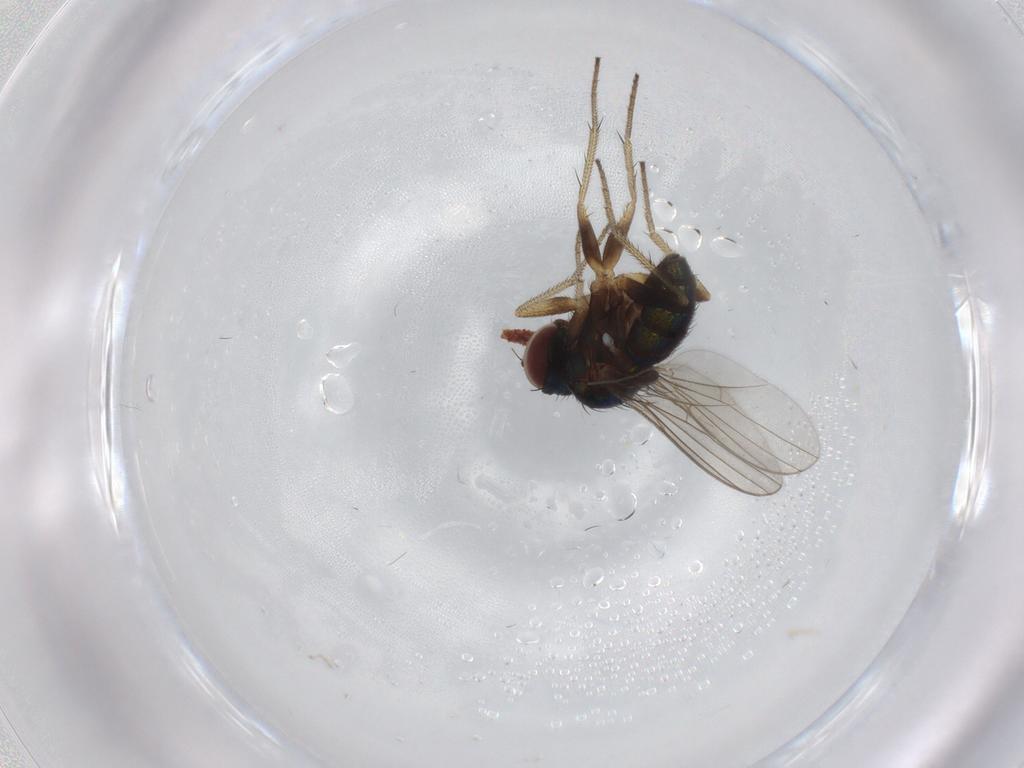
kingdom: Animalia
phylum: Arthropoda
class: Insecta
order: Diptera
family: Dolichopodidae
